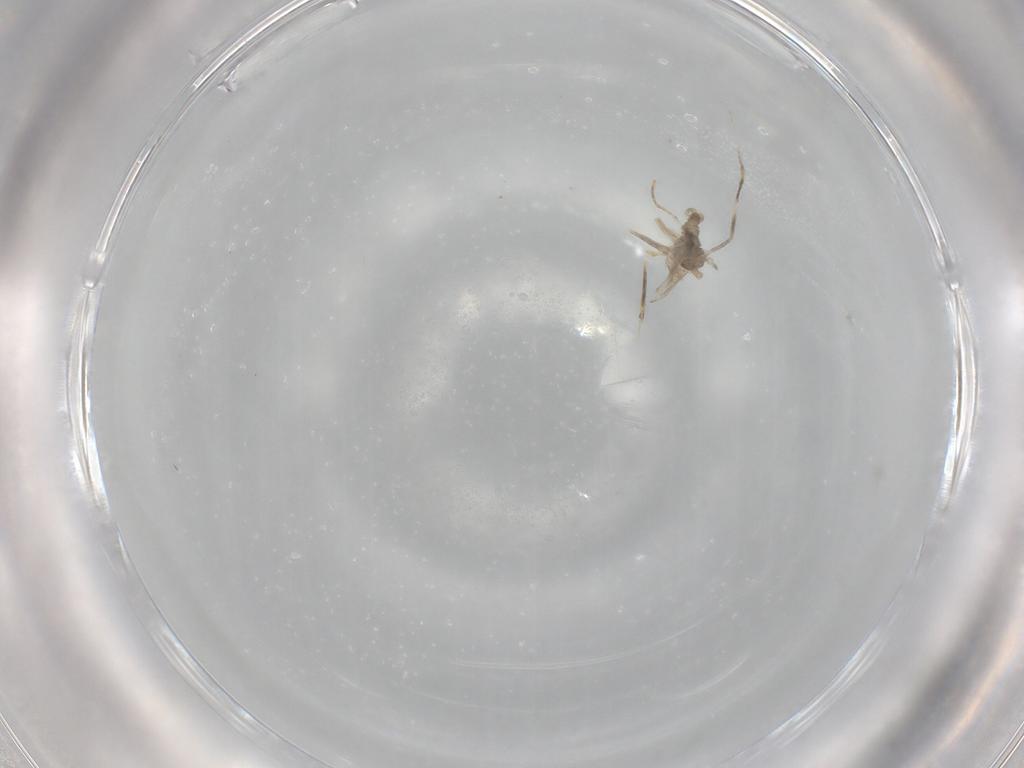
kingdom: Animalia
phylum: Arthropoda
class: Insecta
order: Diptera
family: Cecidomyiidae
